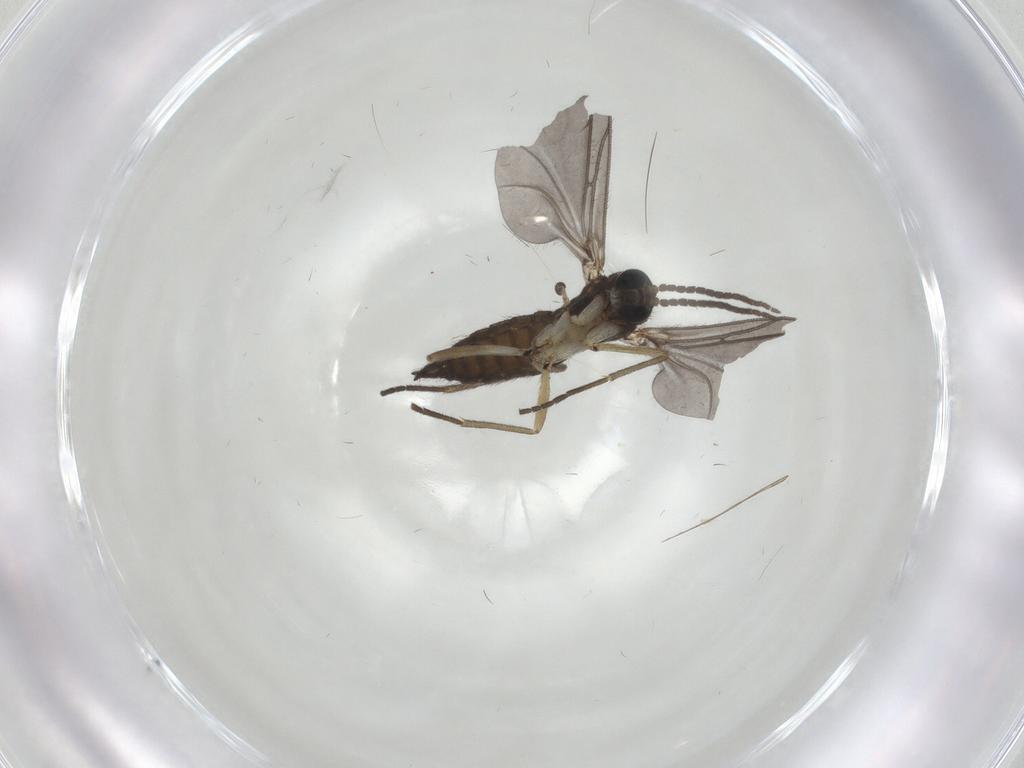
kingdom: Animalia
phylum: Arthropoda
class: Insecta
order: Diptera
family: Sciaridae
